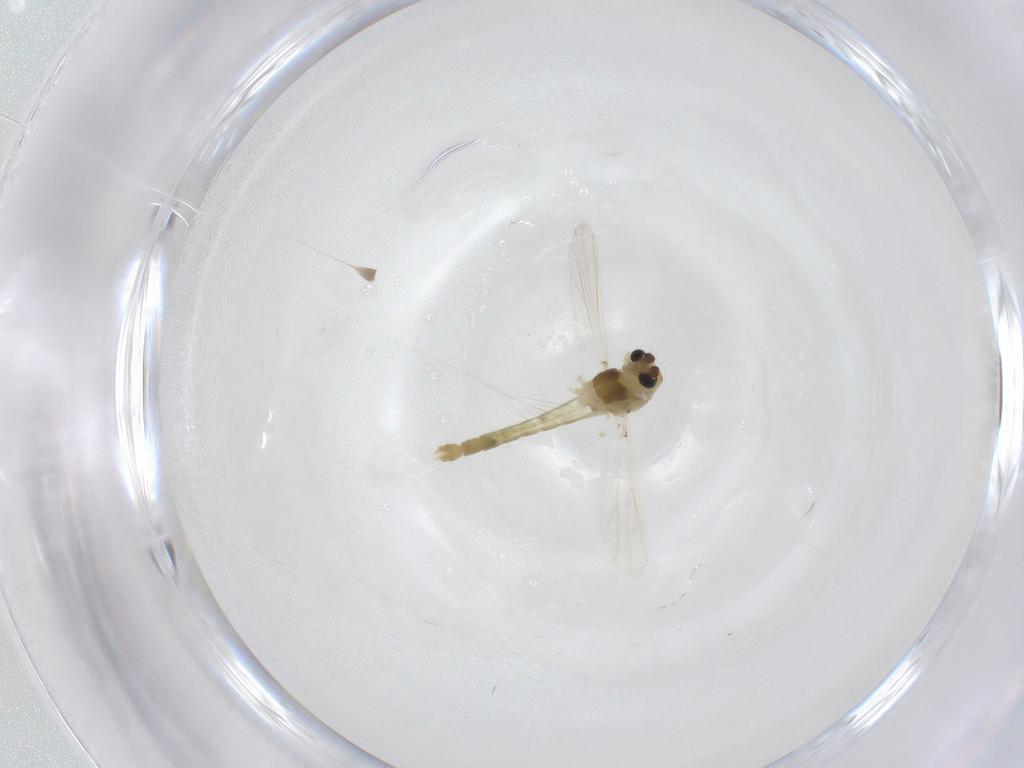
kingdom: Animalia
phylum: Arthropoda
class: Insecta
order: Diptera
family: Chironomidae
